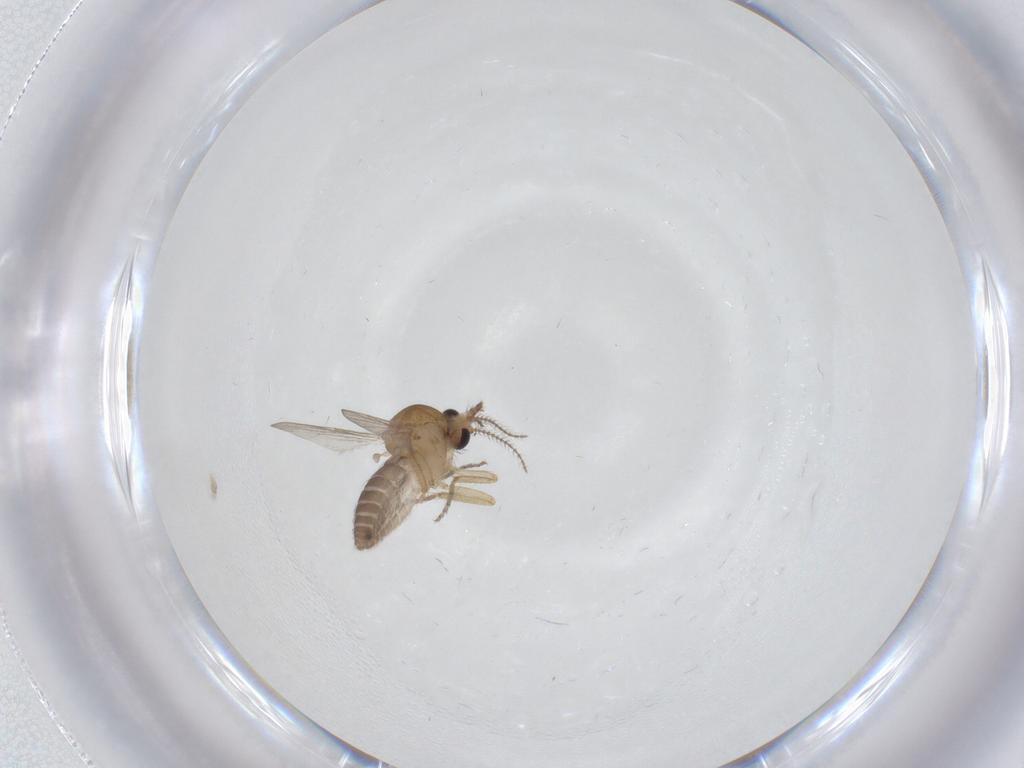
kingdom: Animalia
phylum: Arthropoda
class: Insecta
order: Diptera
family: Ceratopogonidae
